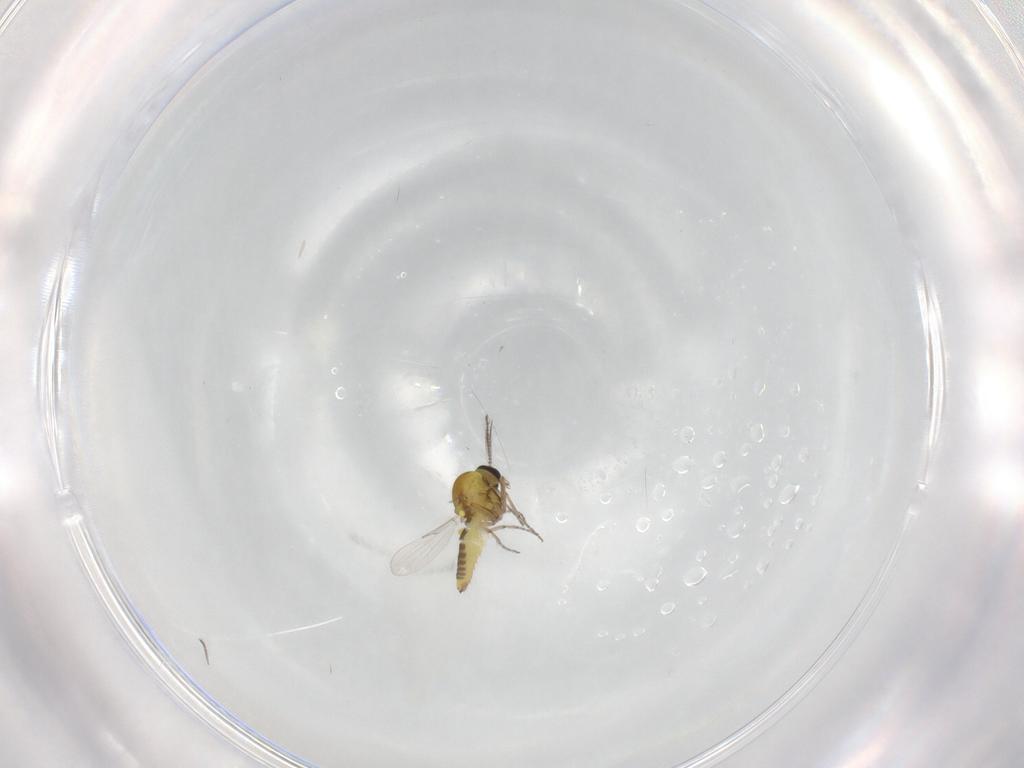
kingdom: Animalia
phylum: Arthropoda
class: Insecta
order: Diptera
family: Ceratopogonidae
